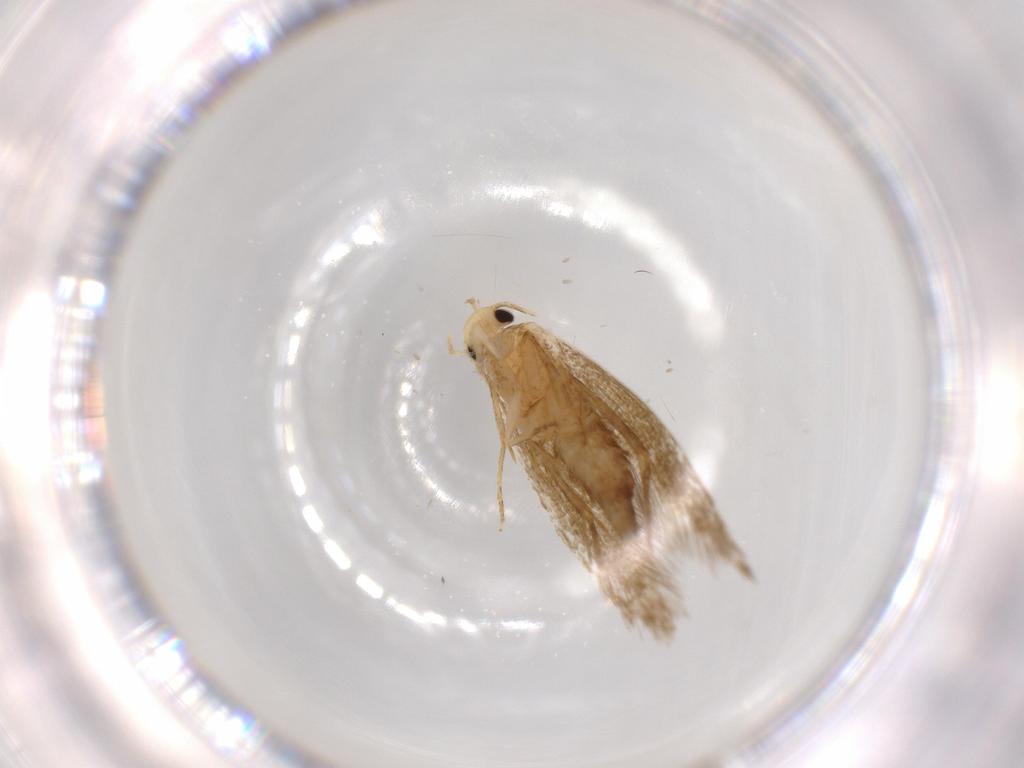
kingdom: Animalia
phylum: Arthropoda
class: Insecta
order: Lepidoptera
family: Tineidae
